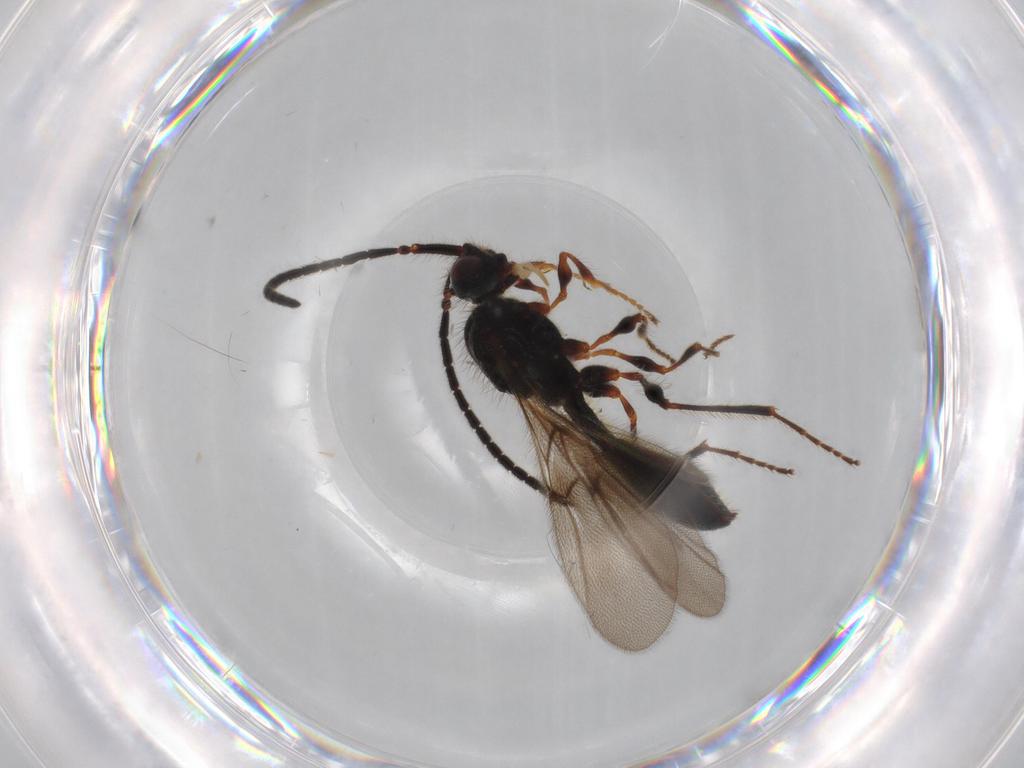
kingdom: Animalia
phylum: Arthropoda
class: Insecta
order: Hymenoptera
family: Diapriidae
